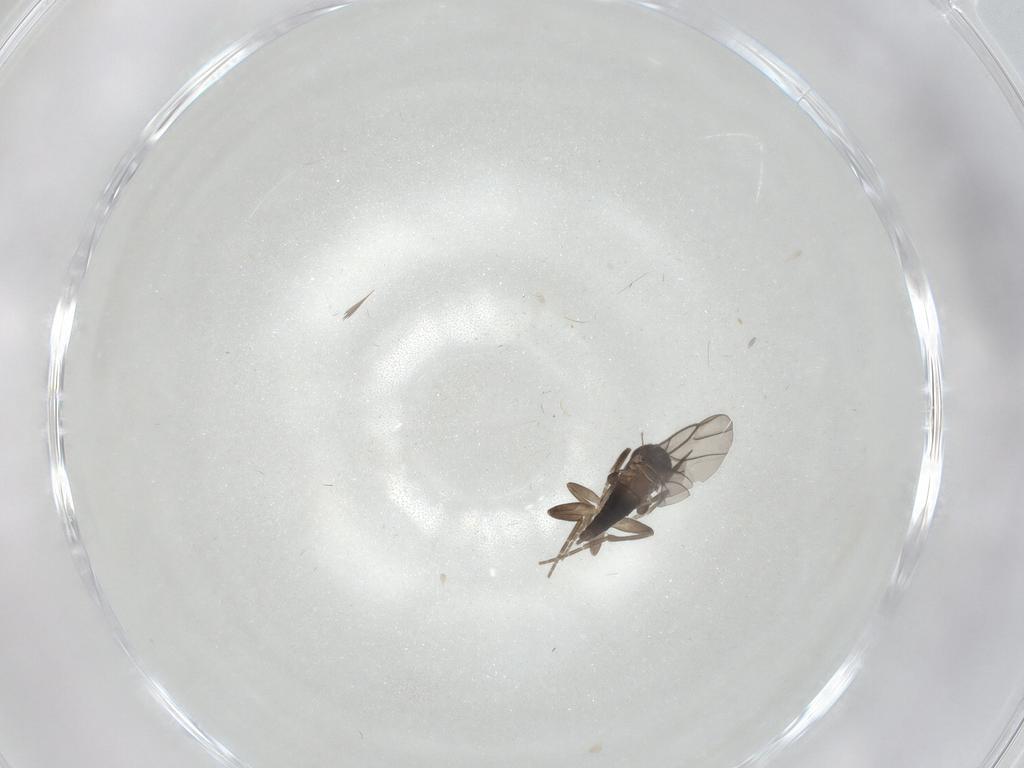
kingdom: Animalia
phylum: Arthropoda
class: Insecta
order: Diptera
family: Ceratopogonidae
